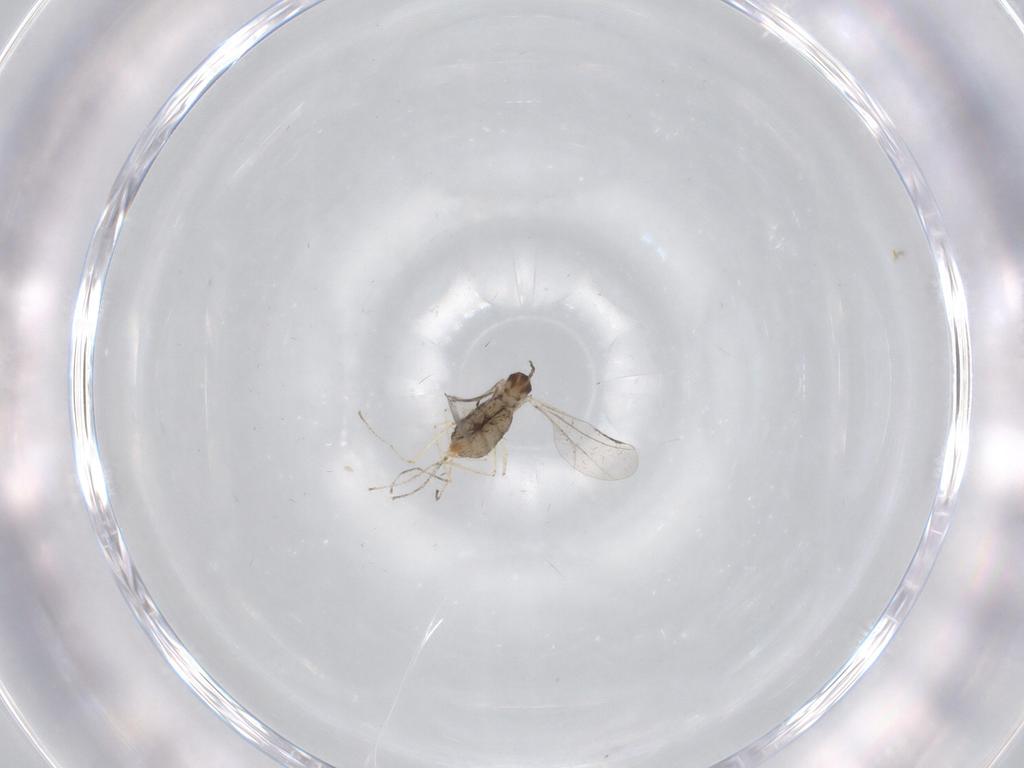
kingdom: Animalia
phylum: Arthropoda
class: Insecta
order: Diptera
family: Cecidomyiidae
